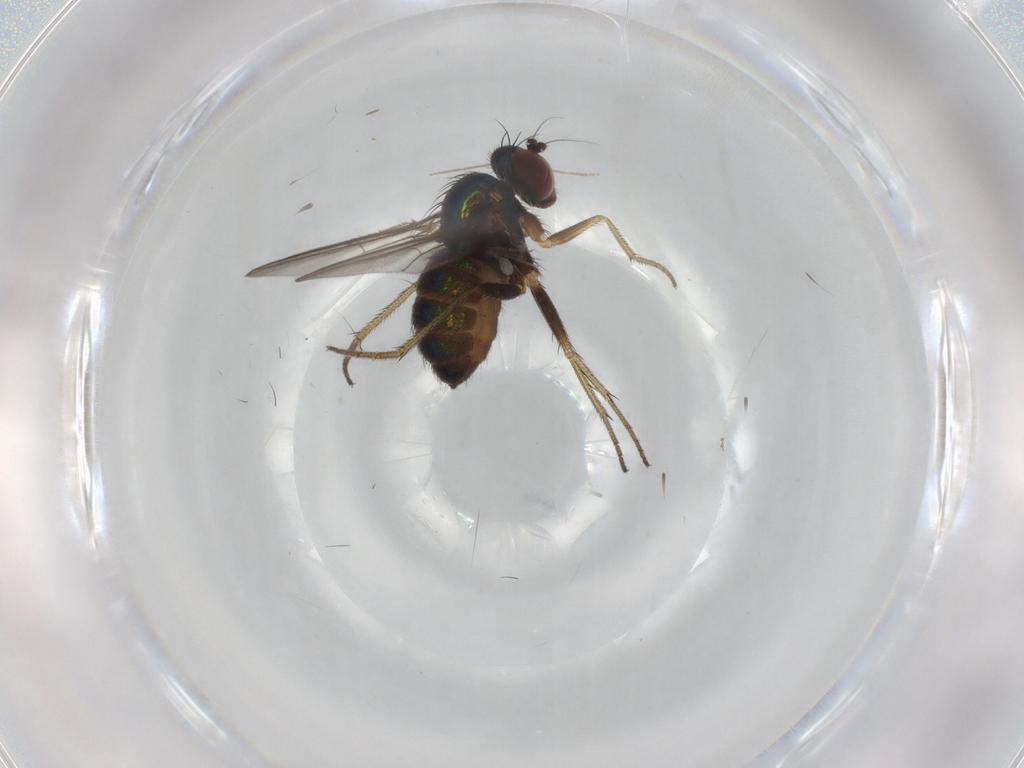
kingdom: Animalia
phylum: Arthropoda
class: Insecta
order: Diptera
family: Chironomidae
